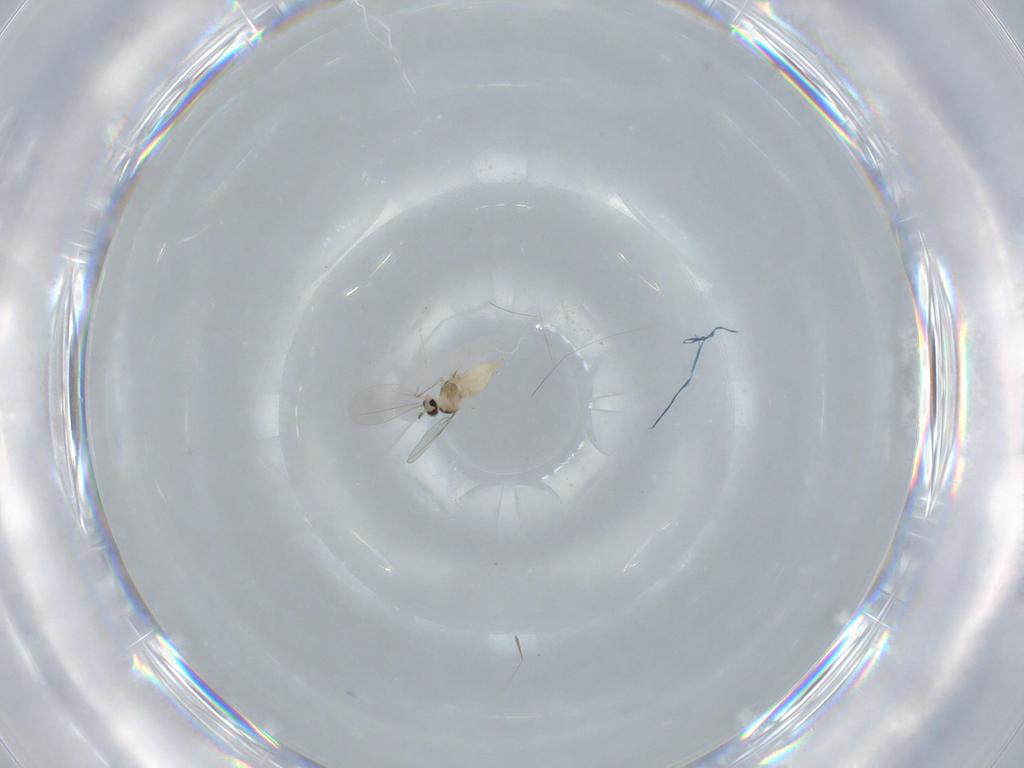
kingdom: Animalia
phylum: Arthropoda
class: Insecta
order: Diptera
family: Cecidomyiidae
